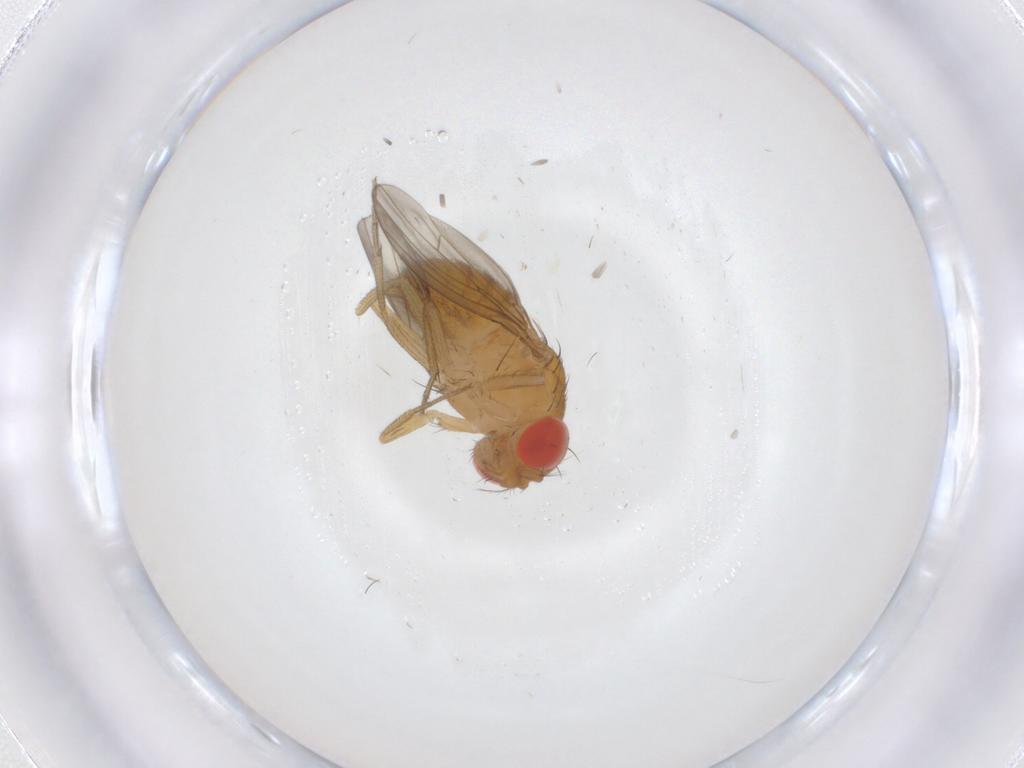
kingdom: Animalia
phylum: Arthropoda
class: Insecta
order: Diptera
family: Drosophilidae
